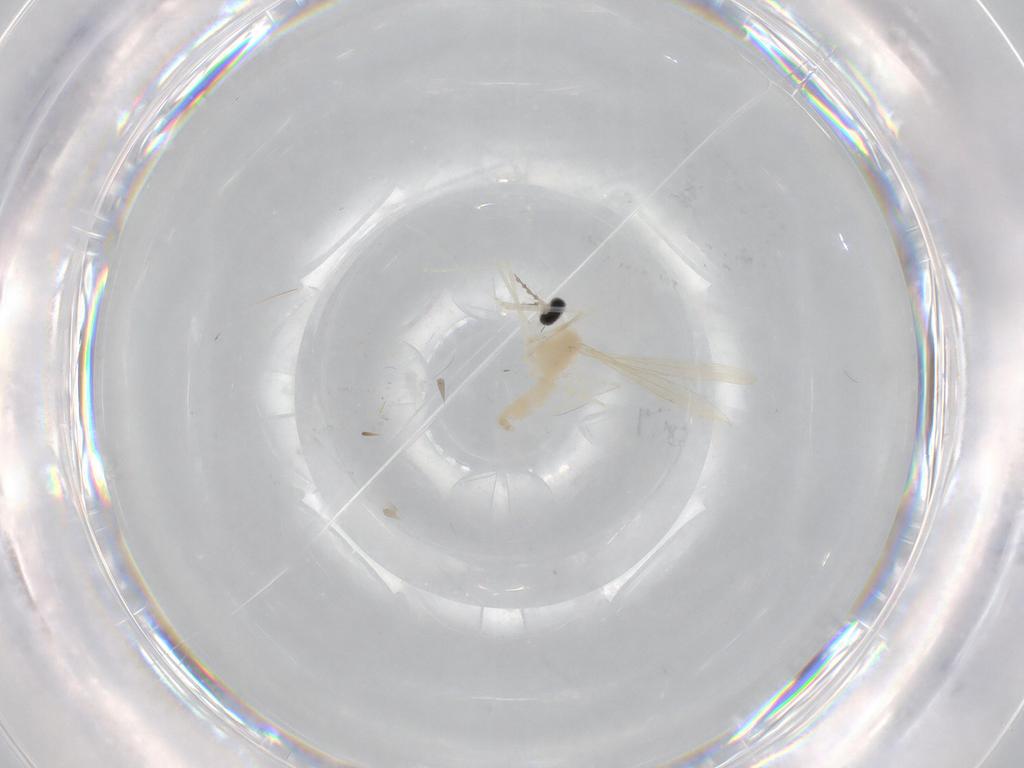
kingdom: Animalia
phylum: Arthropoda
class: Insecta
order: Diptera
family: Cecidomyiidae
